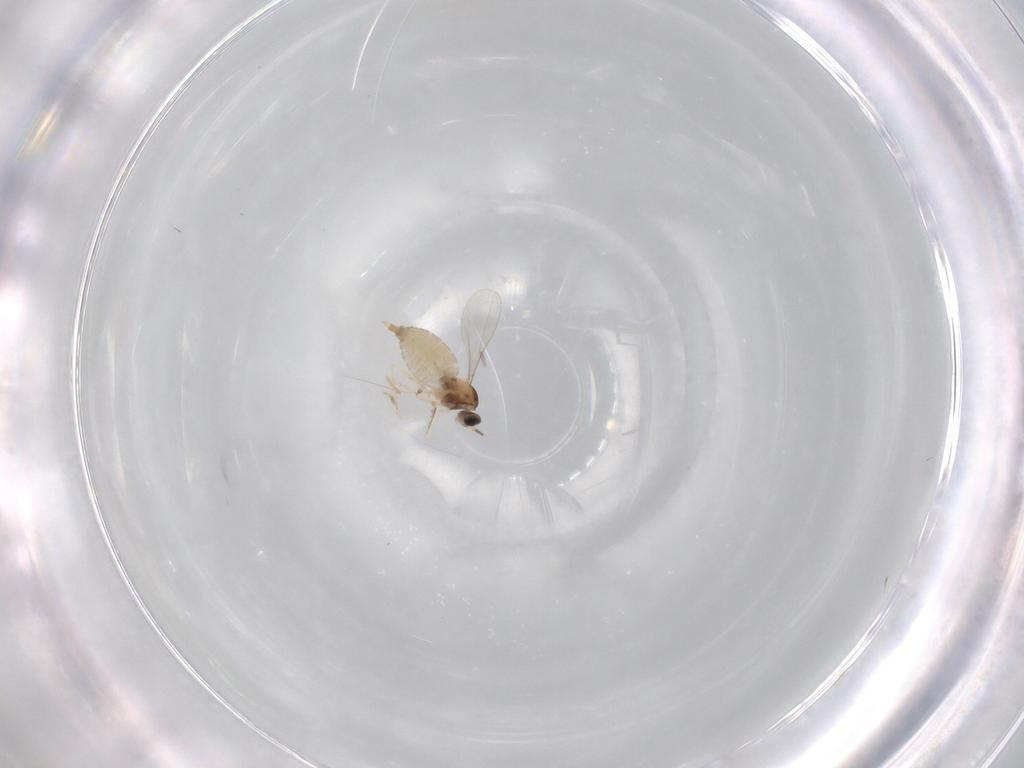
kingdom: Animalia
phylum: Arthropoda
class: Insecta
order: Diptera
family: Cecidomyiidae
